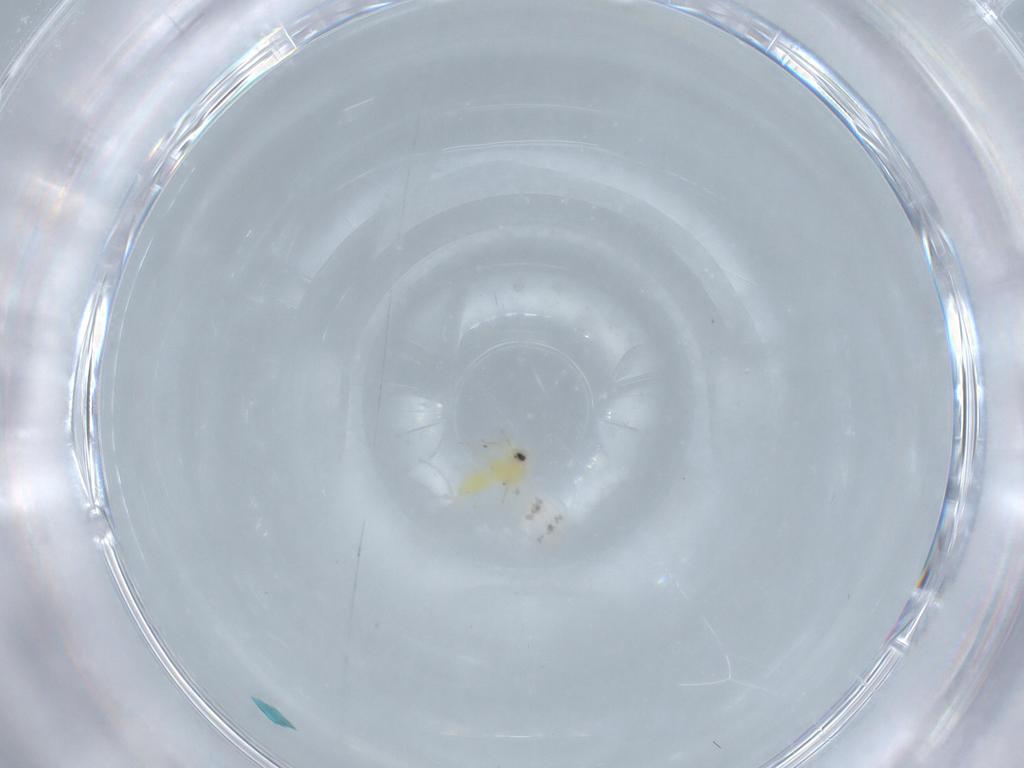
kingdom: Animalia
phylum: Arthropoda
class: Insecta
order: Hemiptera
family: Aleyrodidae
